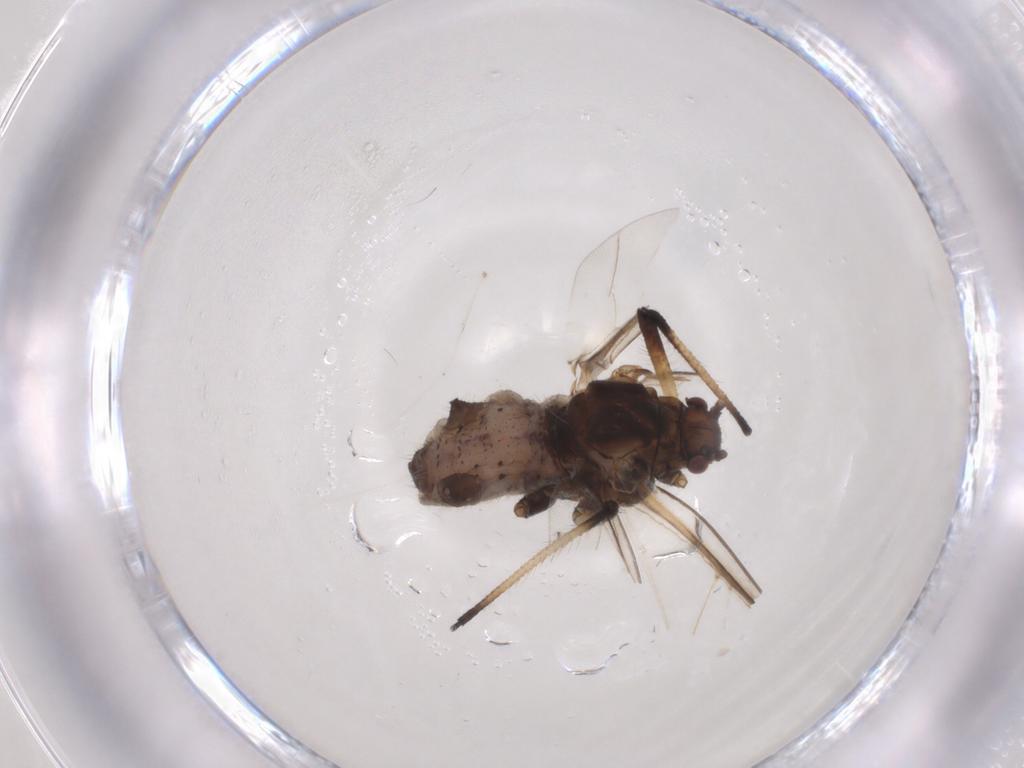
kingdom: Animalia
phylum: Arthropoda
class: Insecta
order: Hemiptera
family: Lachnidae
